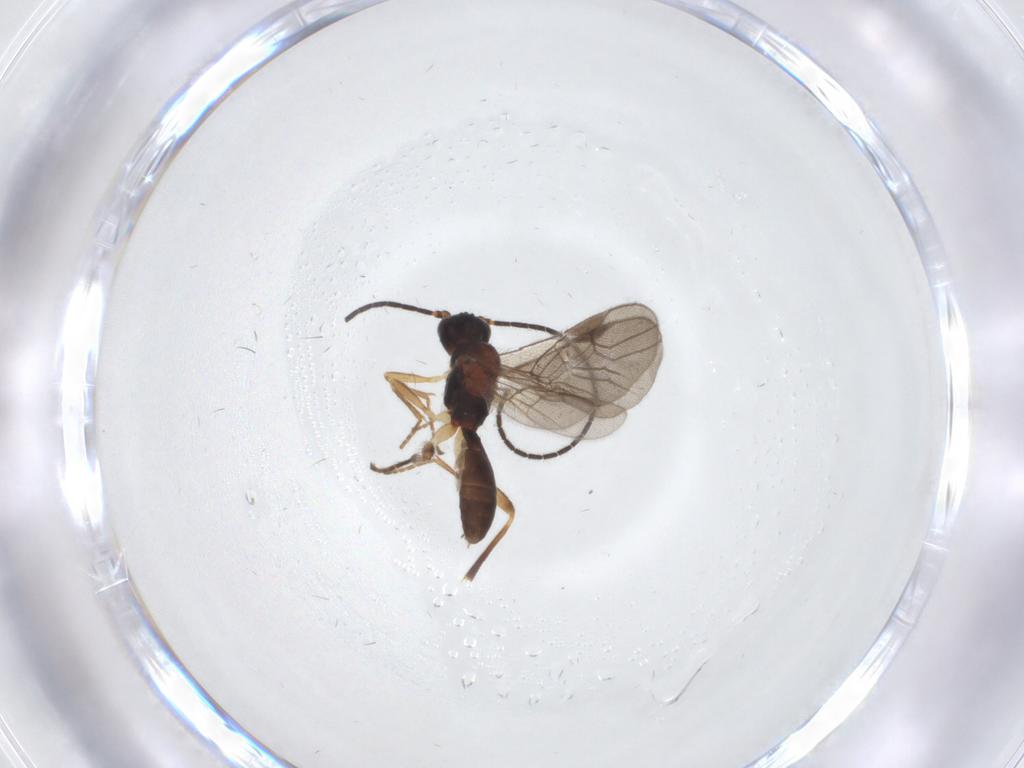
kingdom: Animalia
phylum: Arthropoda
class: Insecta
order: Hymenoptera
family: Braconidae
